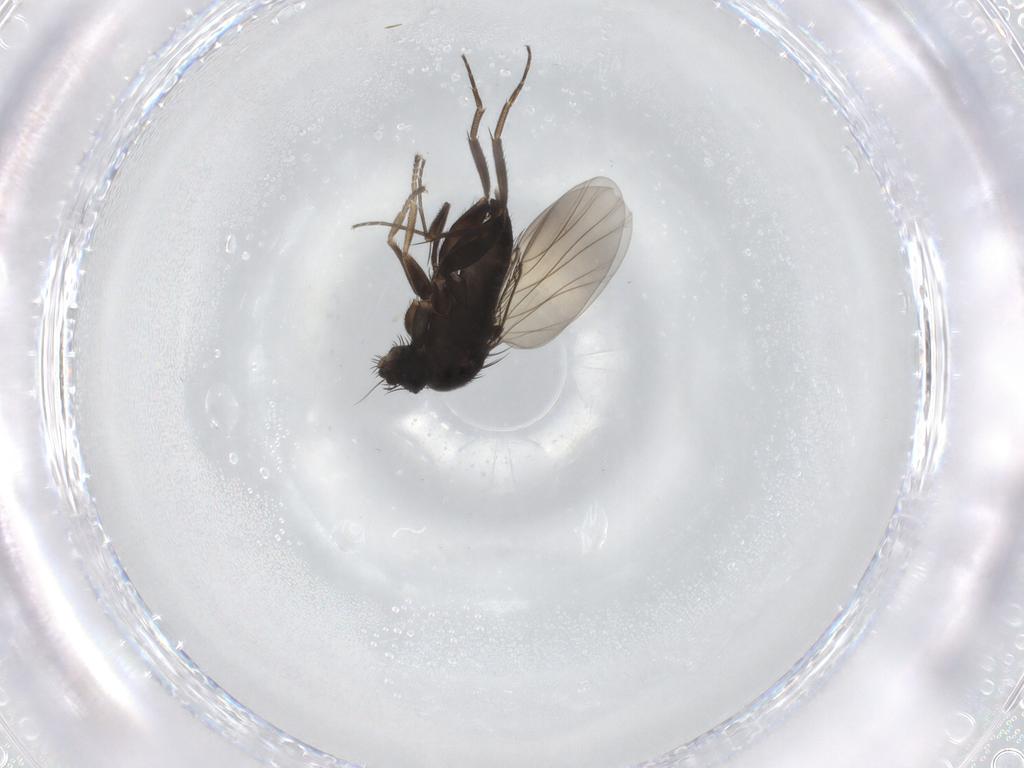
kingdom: Animalia
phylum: Arthropoda
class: Insecta
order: Diptera
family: Phoridae
